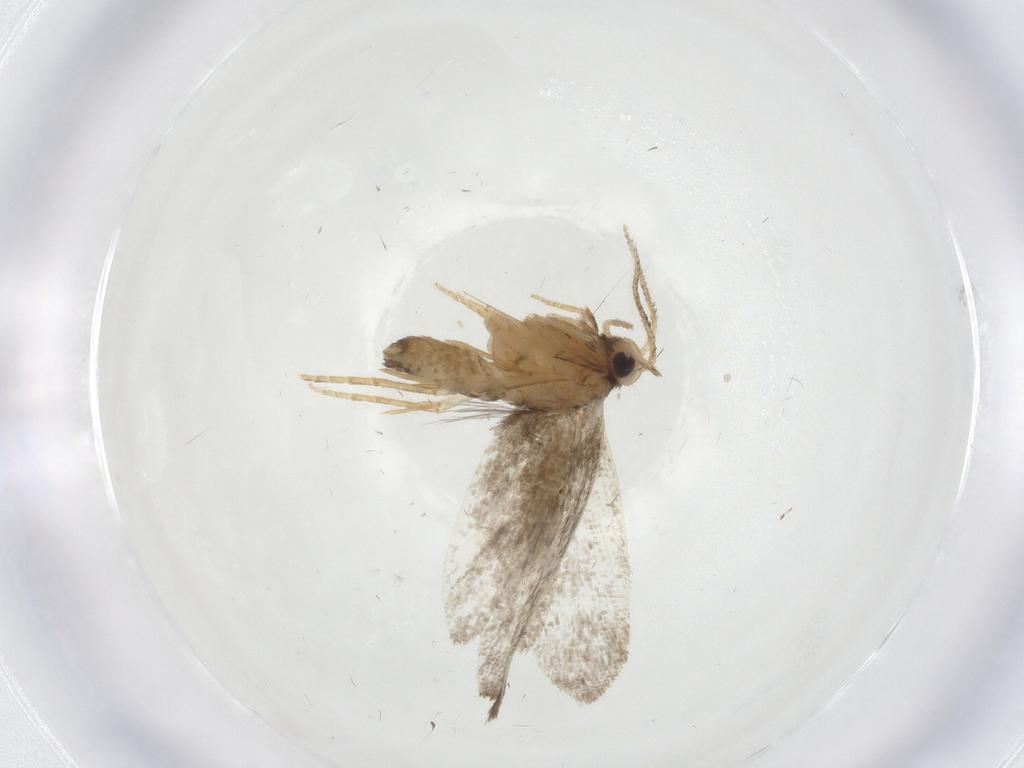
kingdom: Animalia
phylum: Arthropoda
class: Insecta
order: Lepidoptera
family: Psychidae
